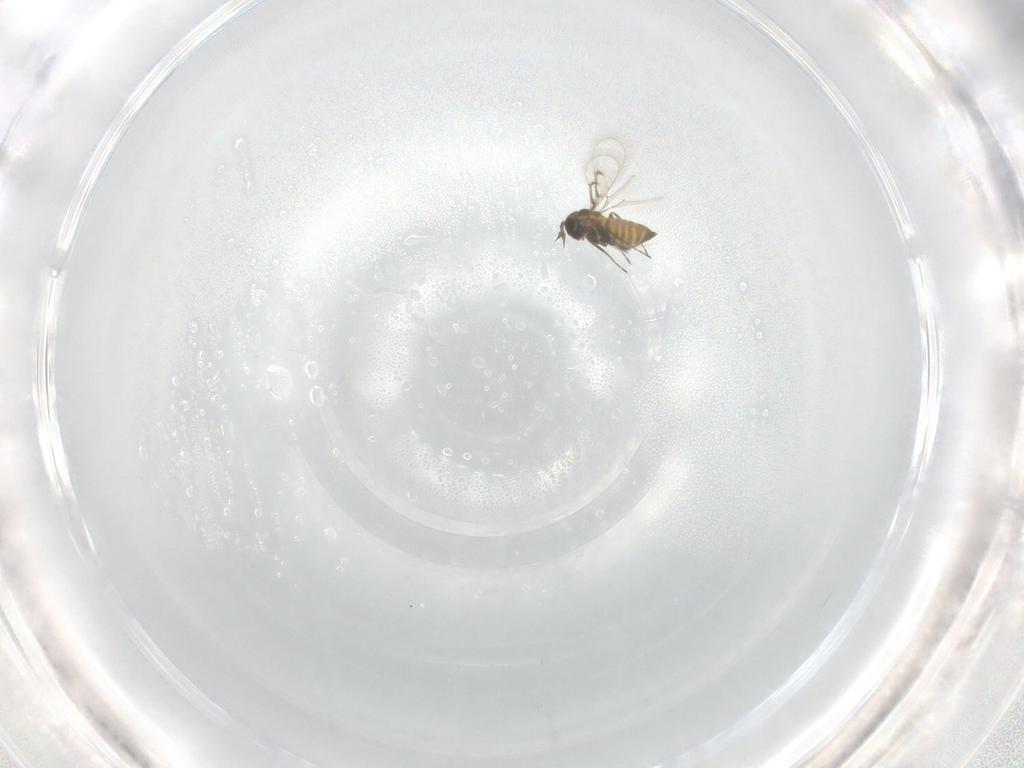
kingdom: Animalia
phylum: Arthropoda
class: Insecta
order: Hymenoptera
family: Trichogrammatidae
